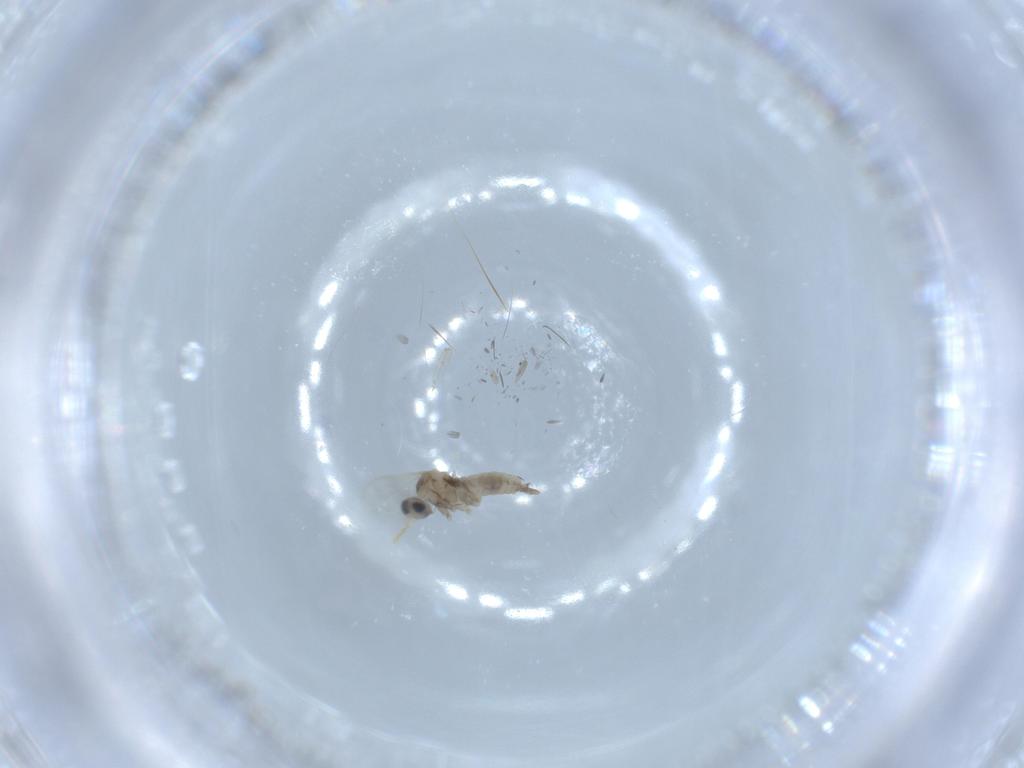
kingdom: Animalia
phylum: Arthropoda
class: Insecta
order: Diptera
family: Cecidomyiidae
